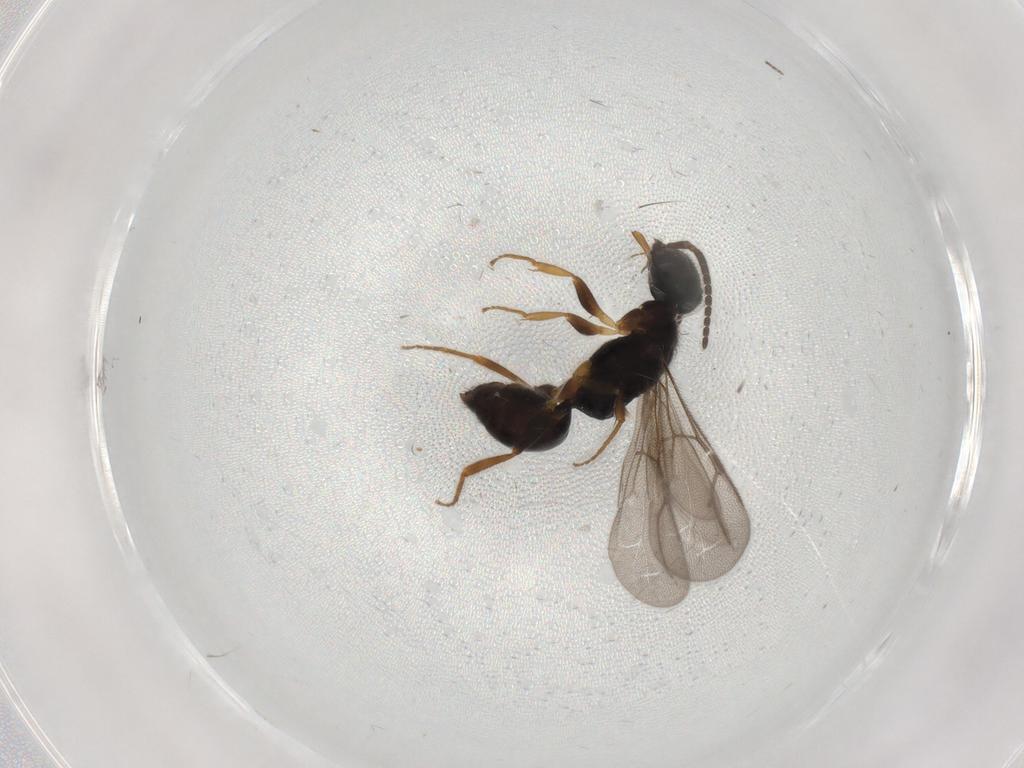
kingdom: Animalia
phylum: Arthropoda
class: Insecta
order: Hymenoptera
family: Bethylidae
